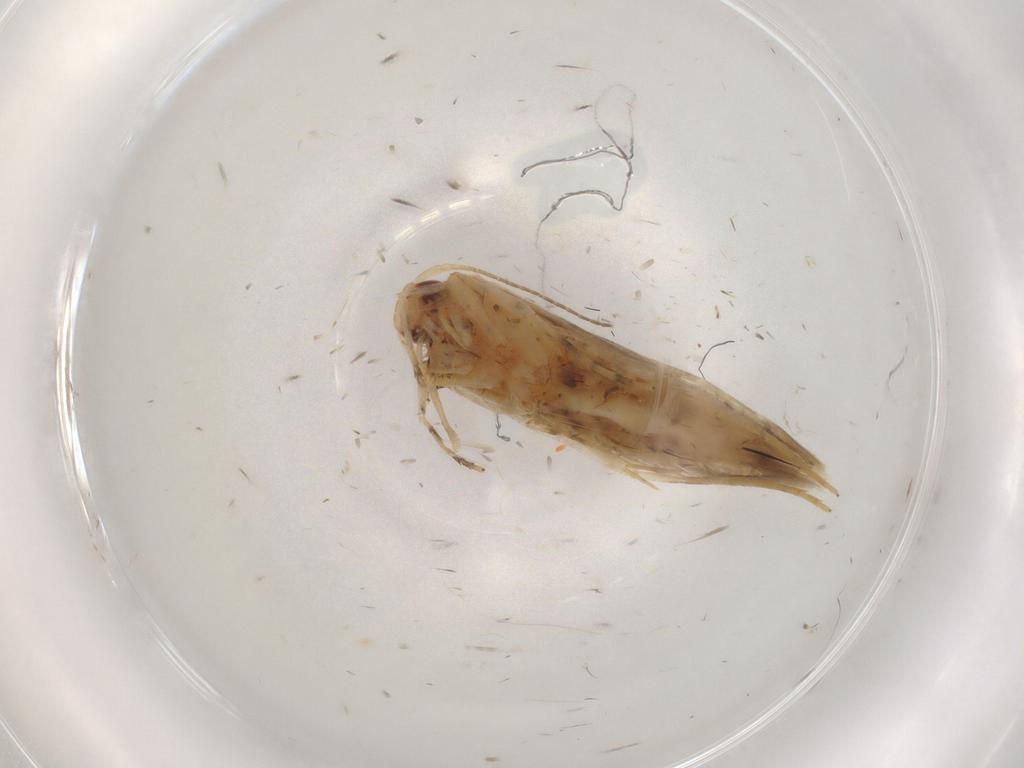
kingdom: Animalia
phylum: Arthropoda
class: Insecta
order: Lepidoptera
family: Cosmopterigidae
